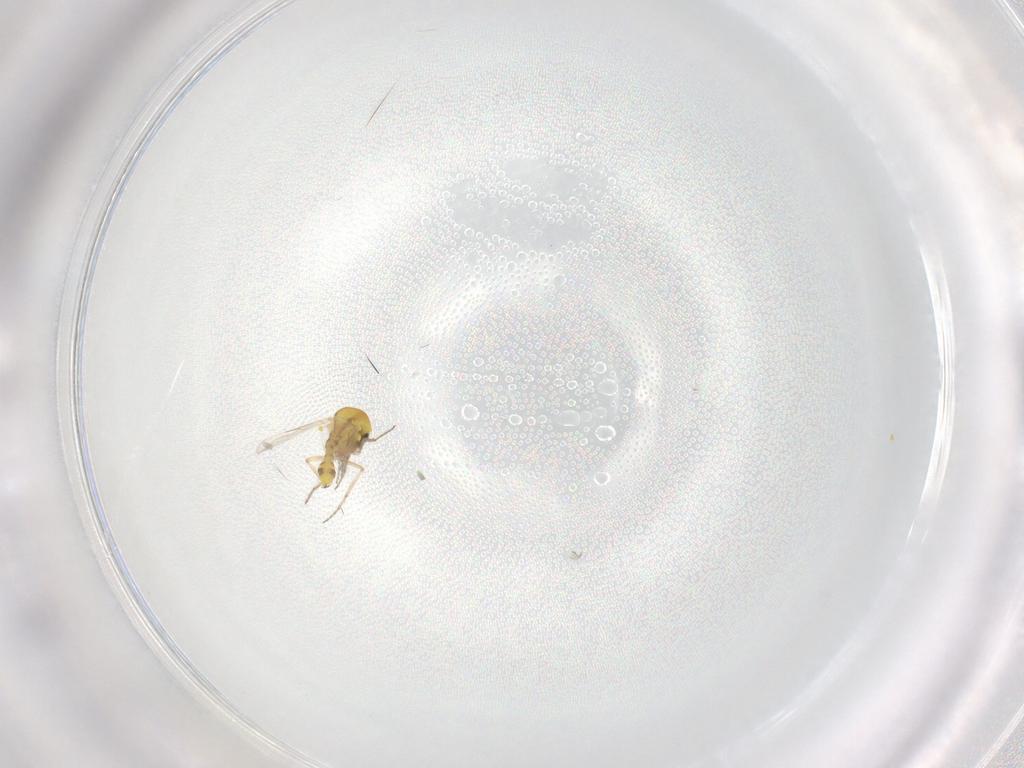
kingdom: Animalia
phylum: Arthropoda
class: Insecta
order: Diptera
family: Ceratopogonidae
